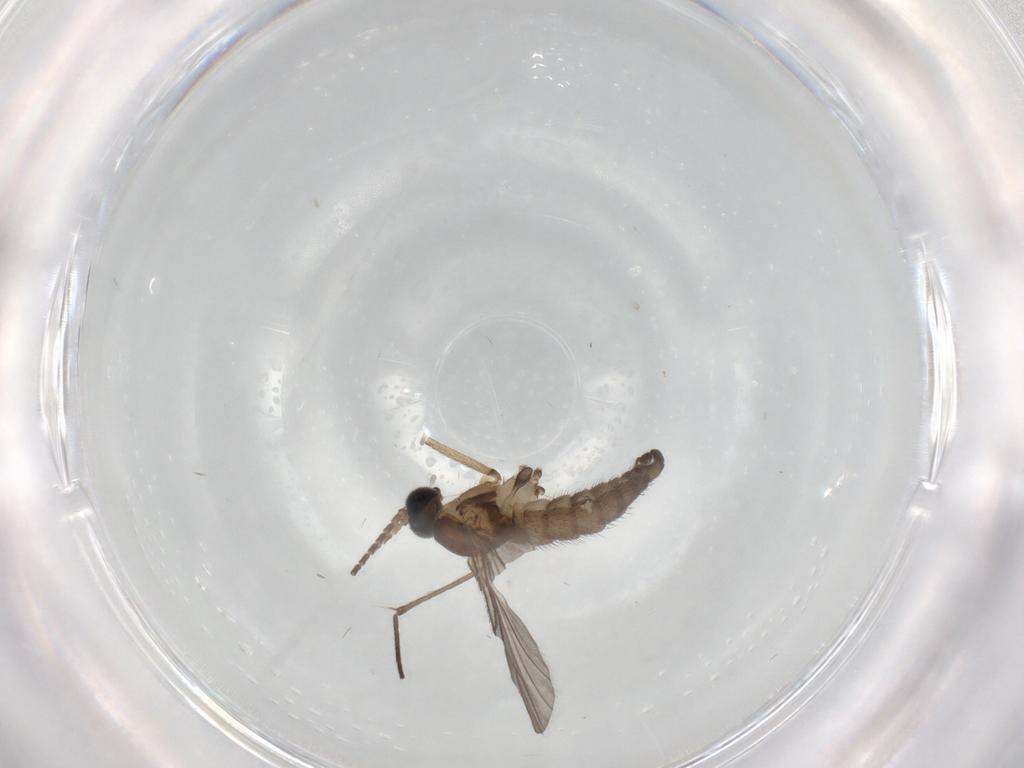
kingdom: Animalia
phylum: Arthropoda
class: Insecta
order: Diptera
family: Sciaridae
